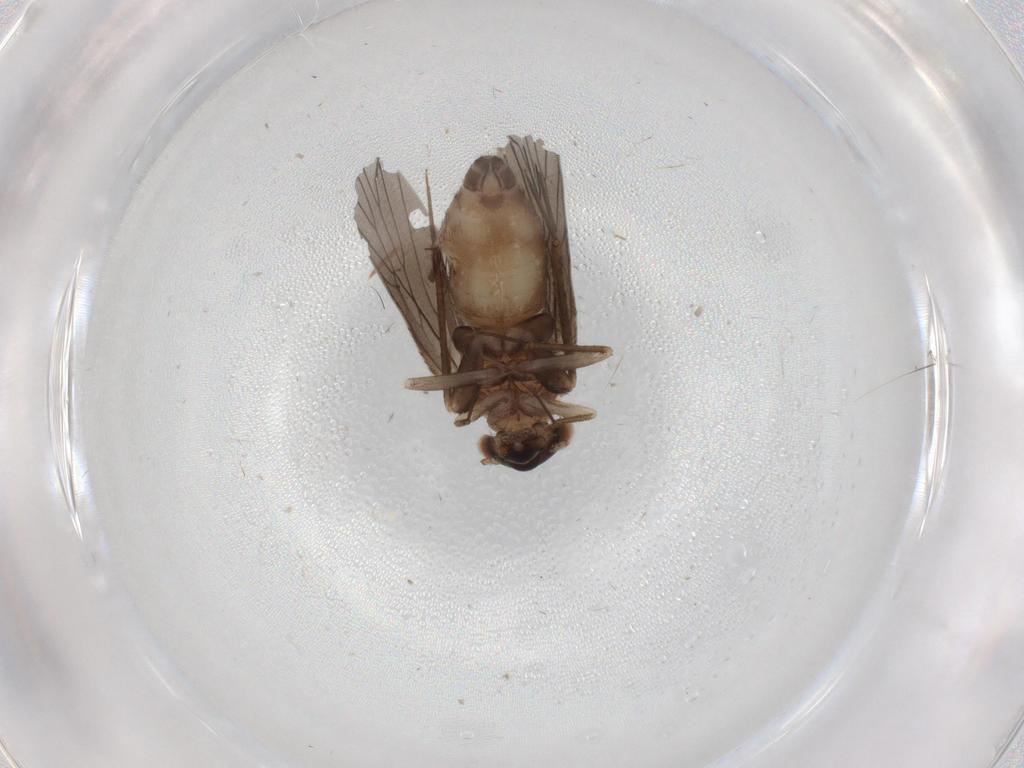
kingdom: Animalia
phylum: Arthropoda
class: Insecta
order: Psocodea
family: Lepidopsocidae
